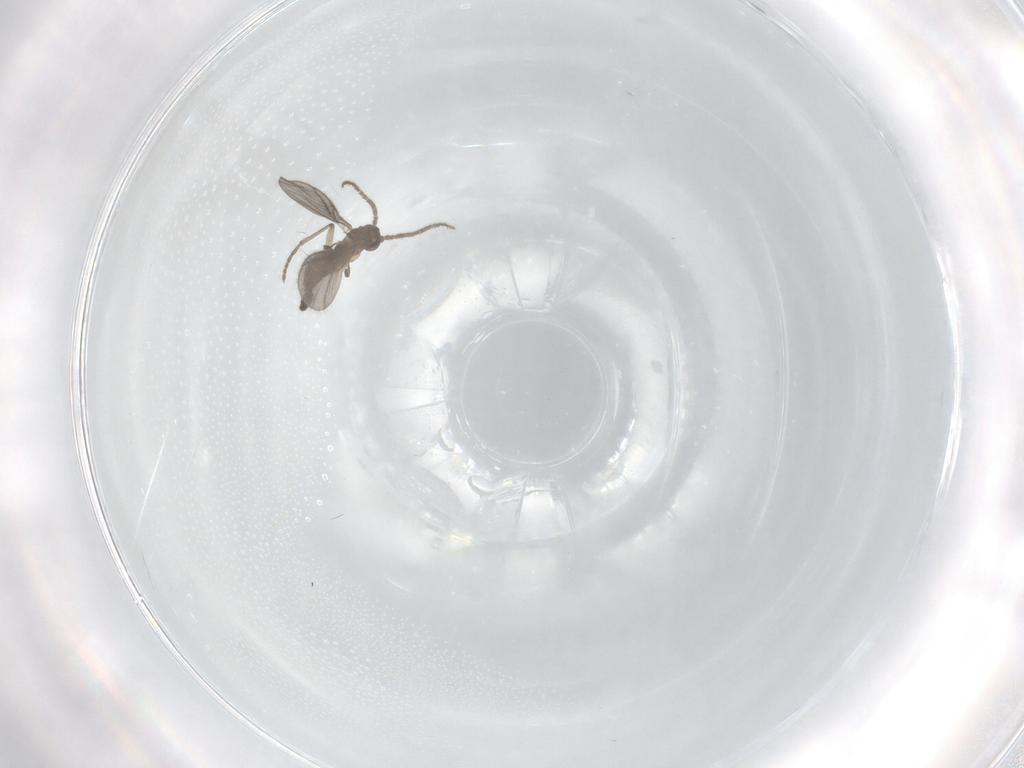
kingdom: Animalia
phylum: Arthropoda
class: Insecta
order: Diptera
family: Sciaridae
